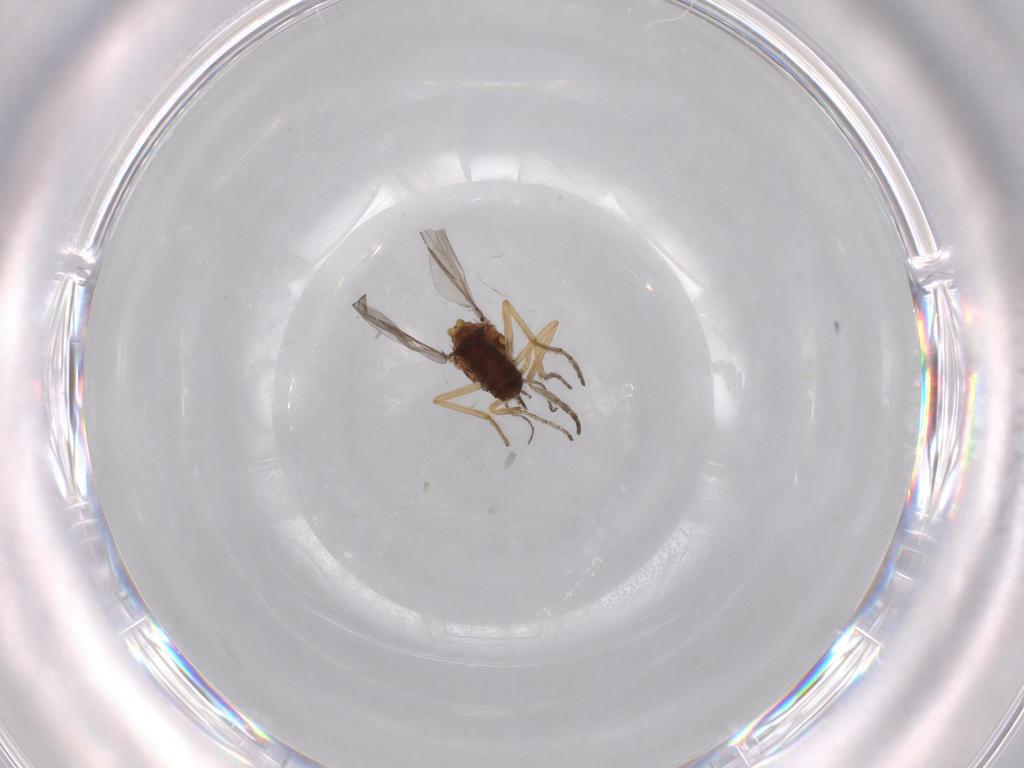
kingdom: Animalia
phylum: Arthropoda
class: Insecta
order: Diptera
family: Ceratopogonidae
